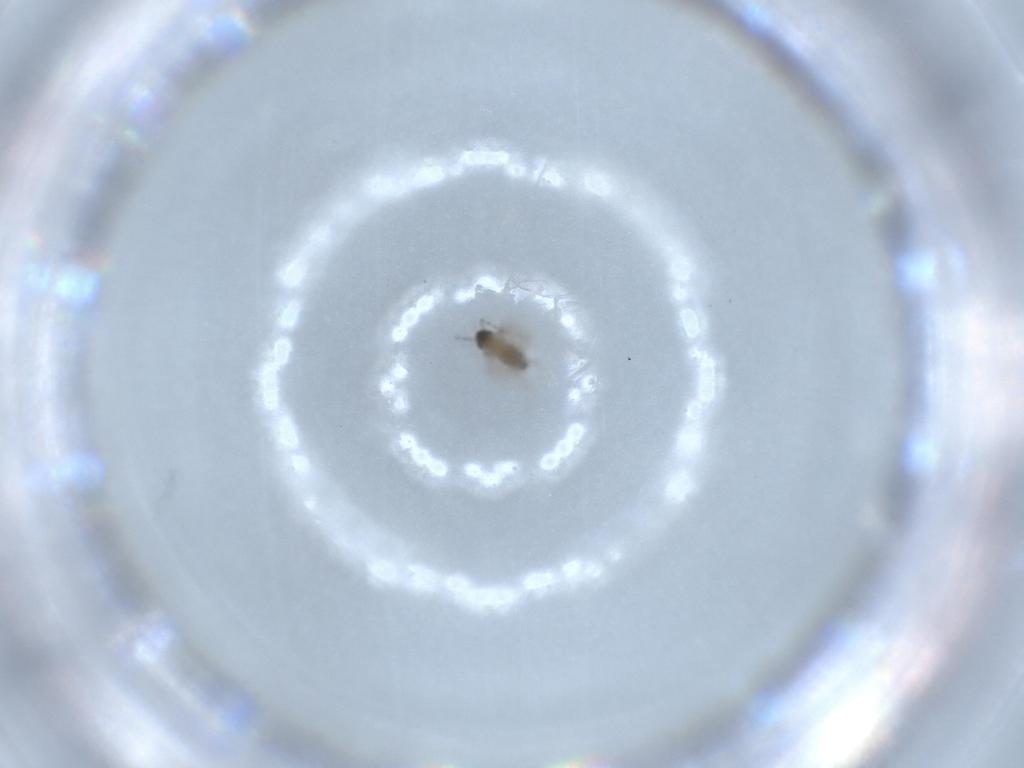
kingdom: Animalia
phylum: Arthropoda
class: Insecta
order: Diptera
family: Cecidomyiidae
